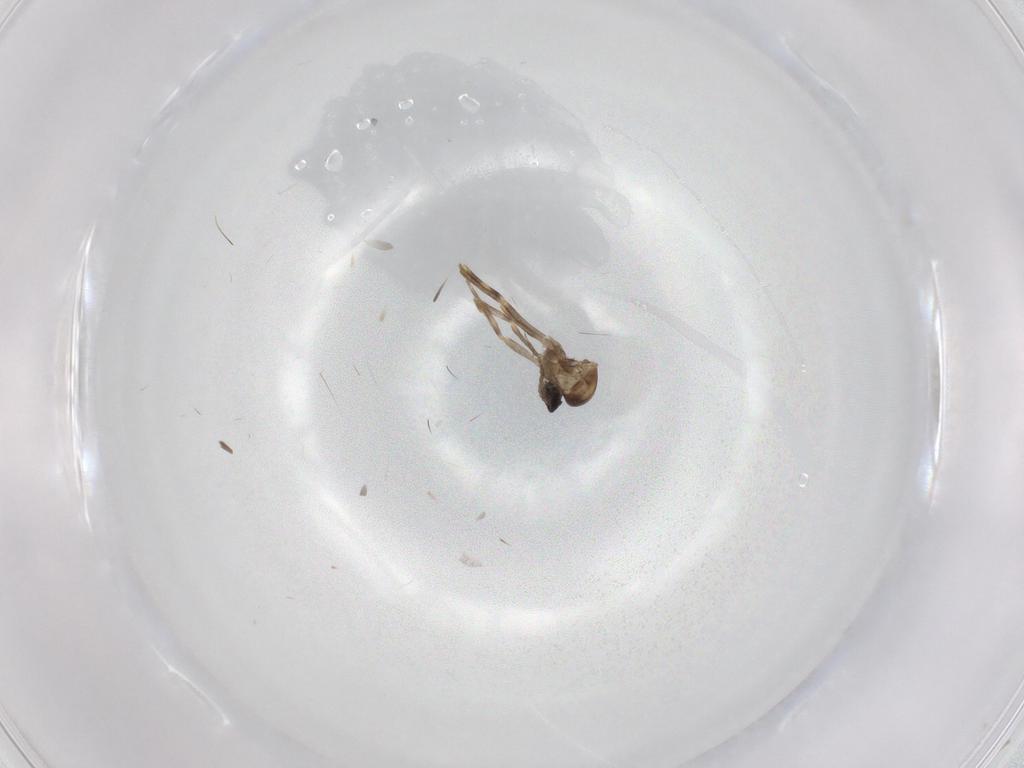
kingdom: Animalia
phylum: Arthropoda
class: Insecta
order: Diptera
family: Ceratopogonidae
